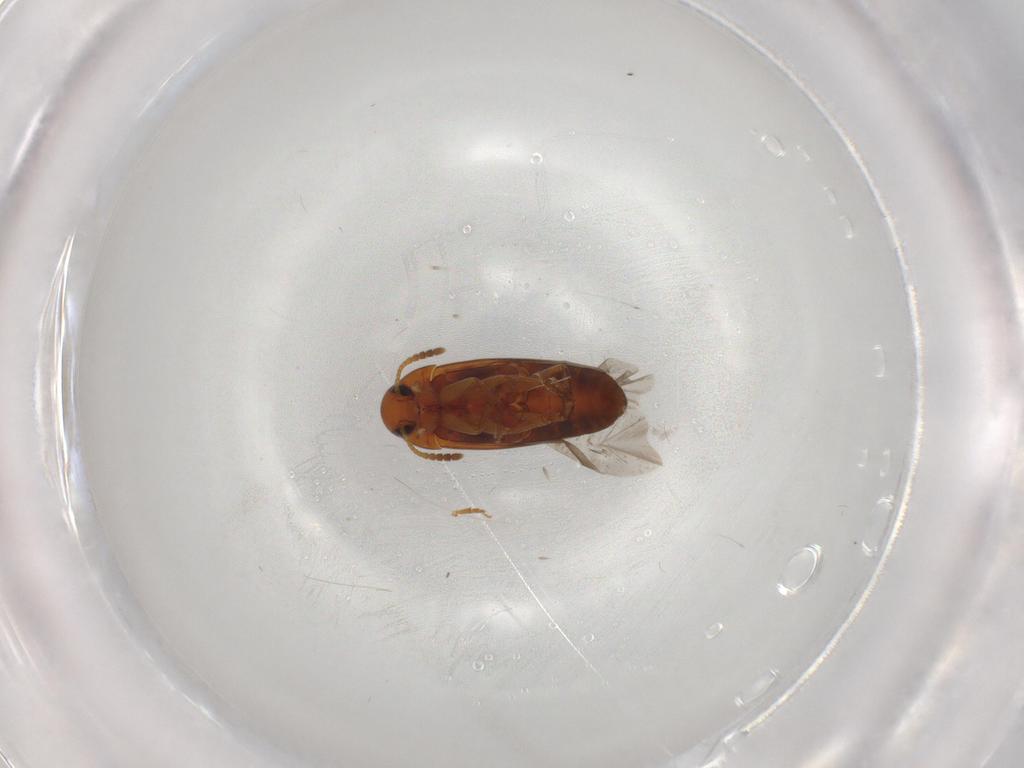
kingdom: Animalia
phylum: Arthropoda
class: Insecta
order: Coleoptera
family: Scraptiidae
